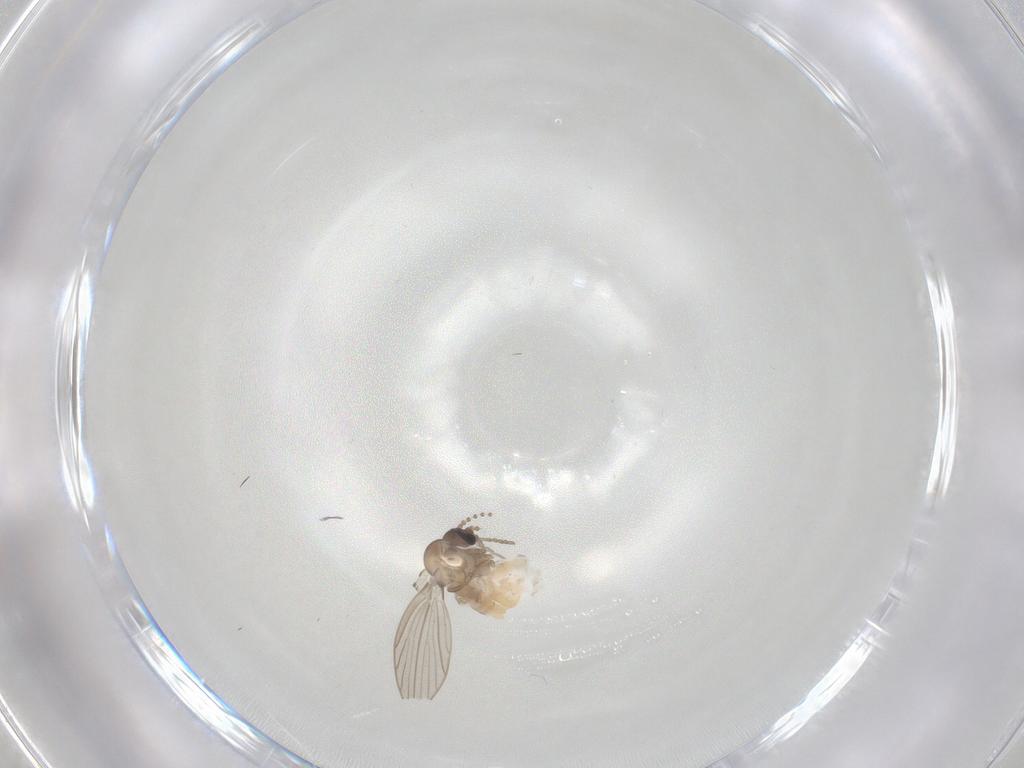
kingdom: Animalia
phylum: Arthropoda
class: Insecta
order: Diptera
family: Psychodidae
